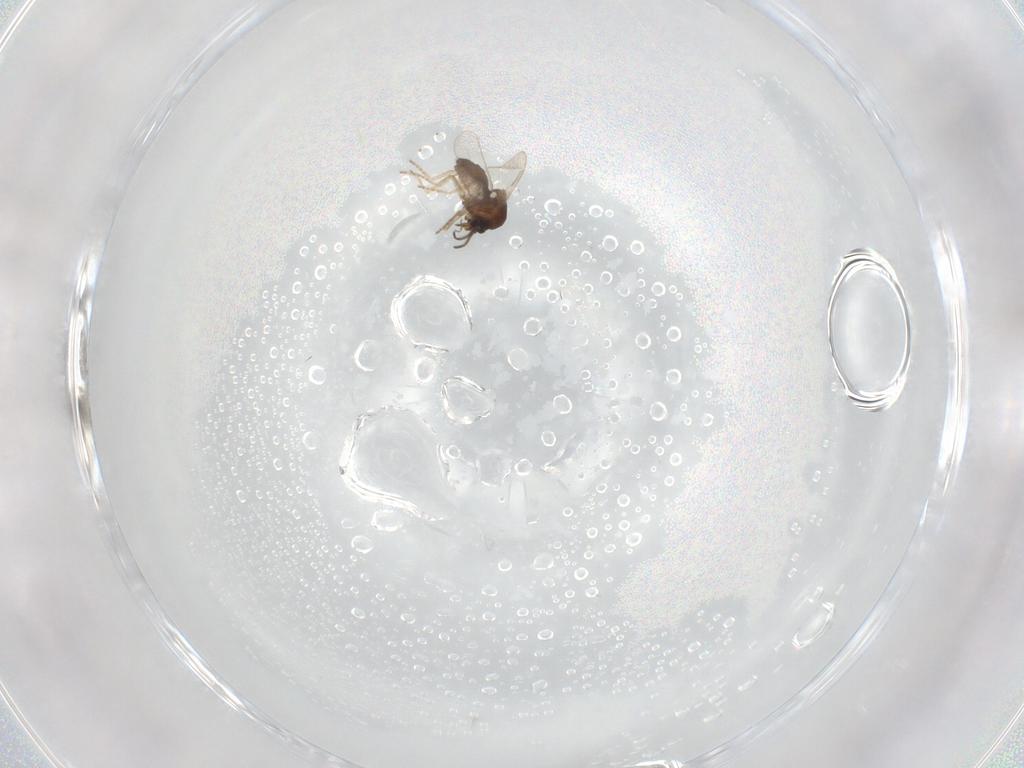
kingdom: Animalia
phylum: Arthropoda
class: Insecta
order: Diptera
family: Ceratopogonidae
